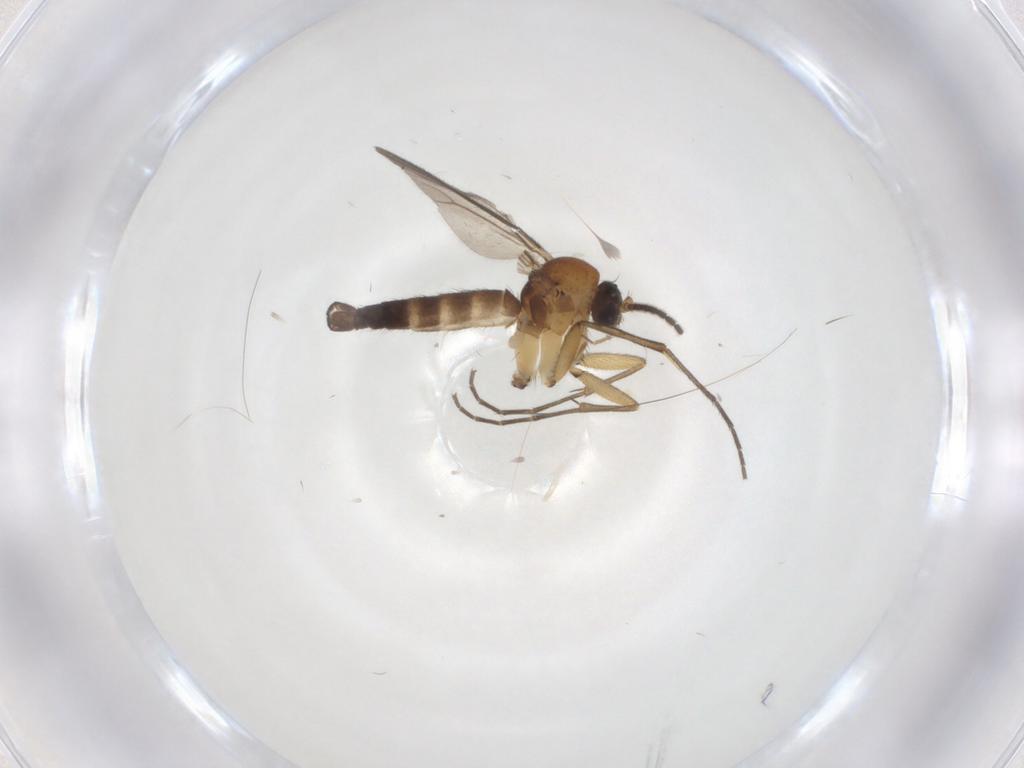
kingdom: Animalia
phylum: Arthropoda
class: Insecta
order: Diptera
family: Mycetophilidae
